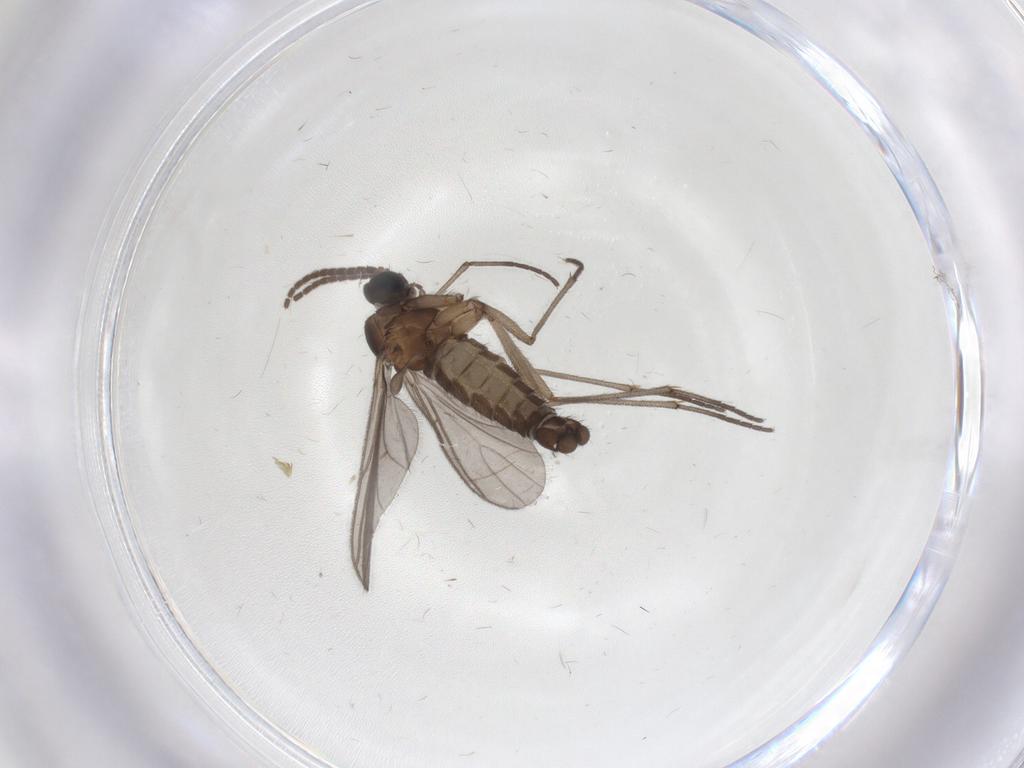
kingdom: Animalia
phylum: Arthropoda
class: Insecta
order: Diptera
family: Sciaridae
